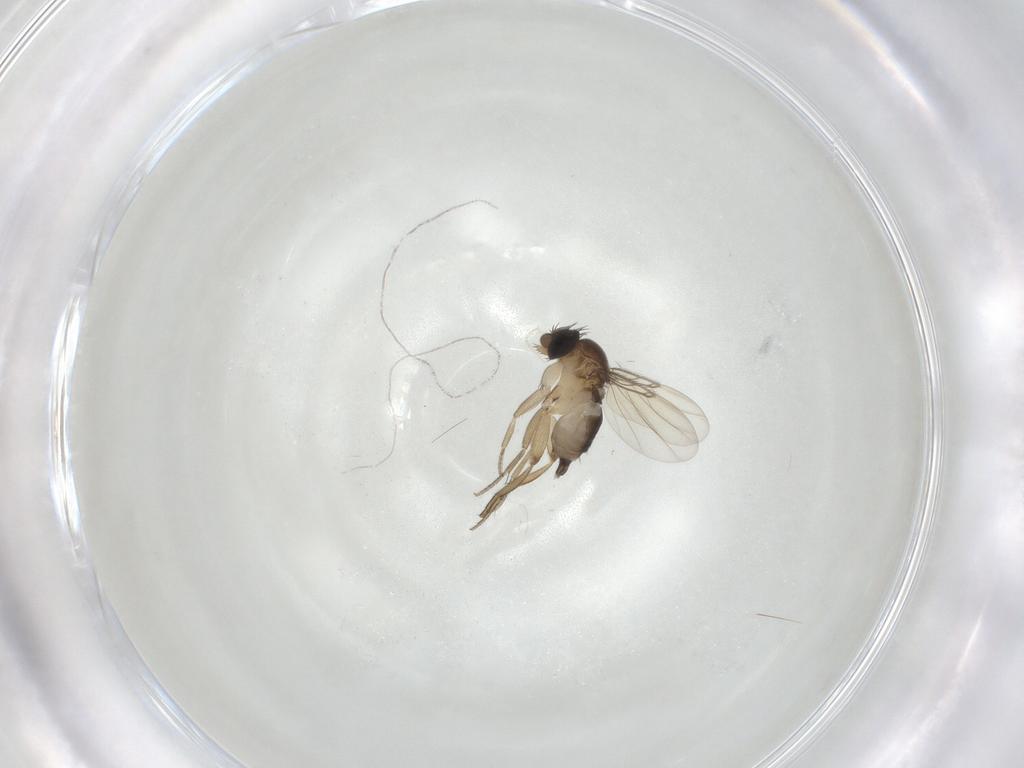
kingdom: Animalia
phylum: Arthropoda
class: Insecta
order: Diptera
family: Phoridae
